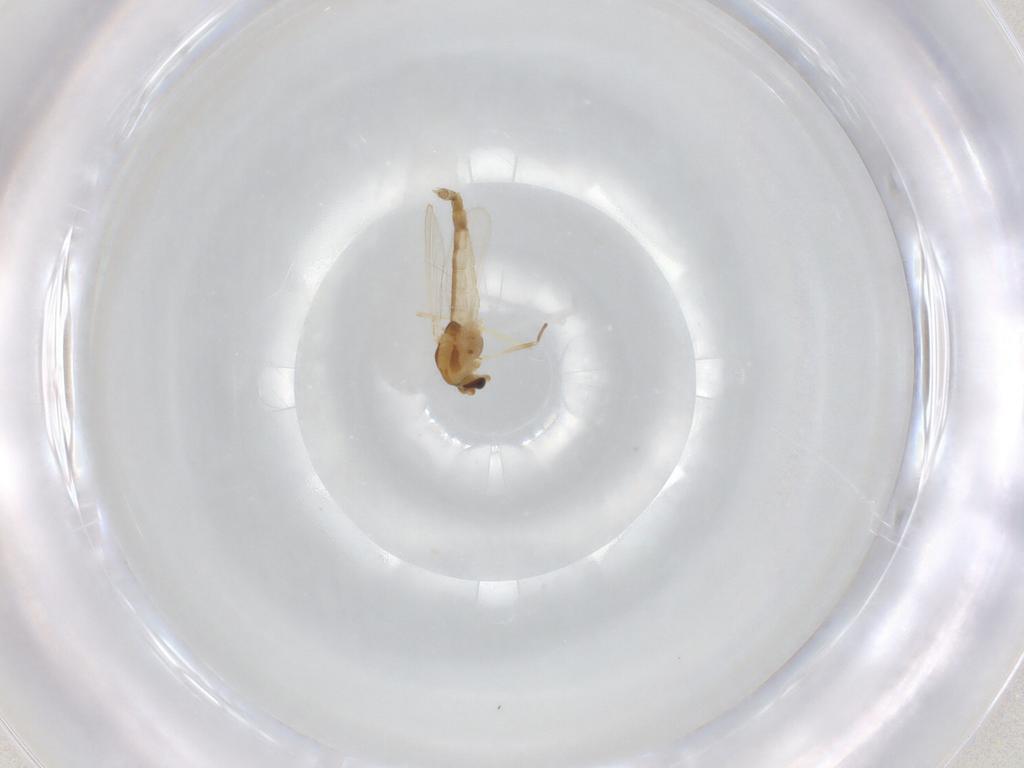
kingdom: Animalia
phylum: Arthropoda
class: Insecta
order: Diptera
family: Chironomidae
